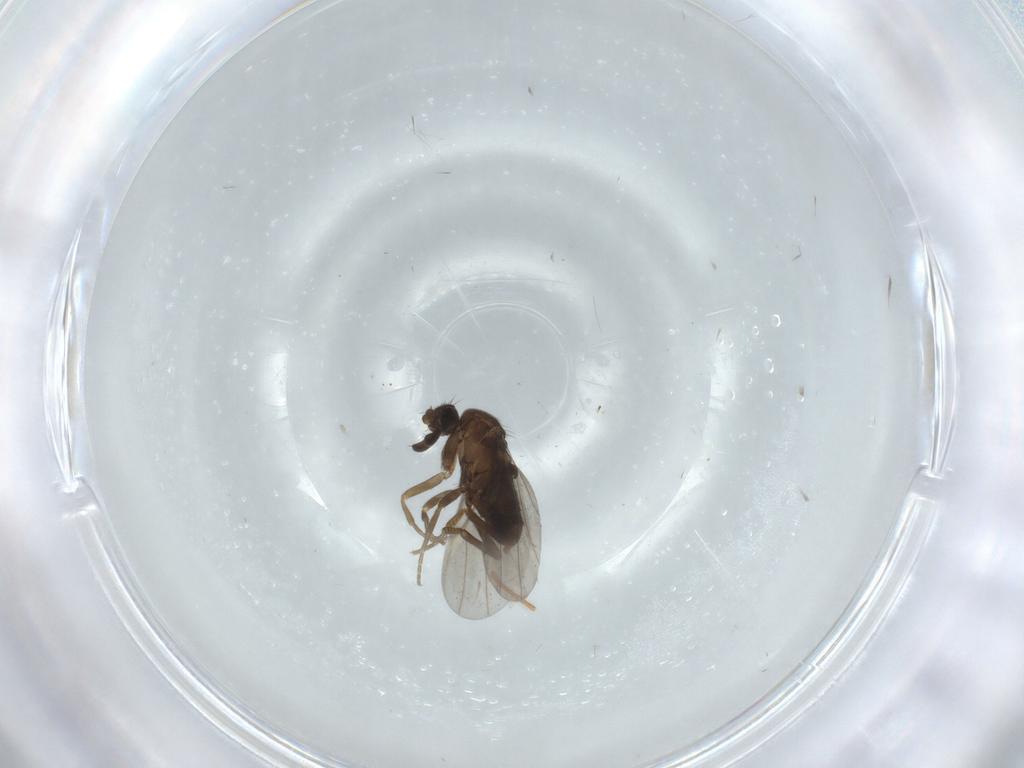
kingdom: Animalia
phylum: Arthropoda
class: Insecta
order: Diptera
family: Cecidomyiidae
